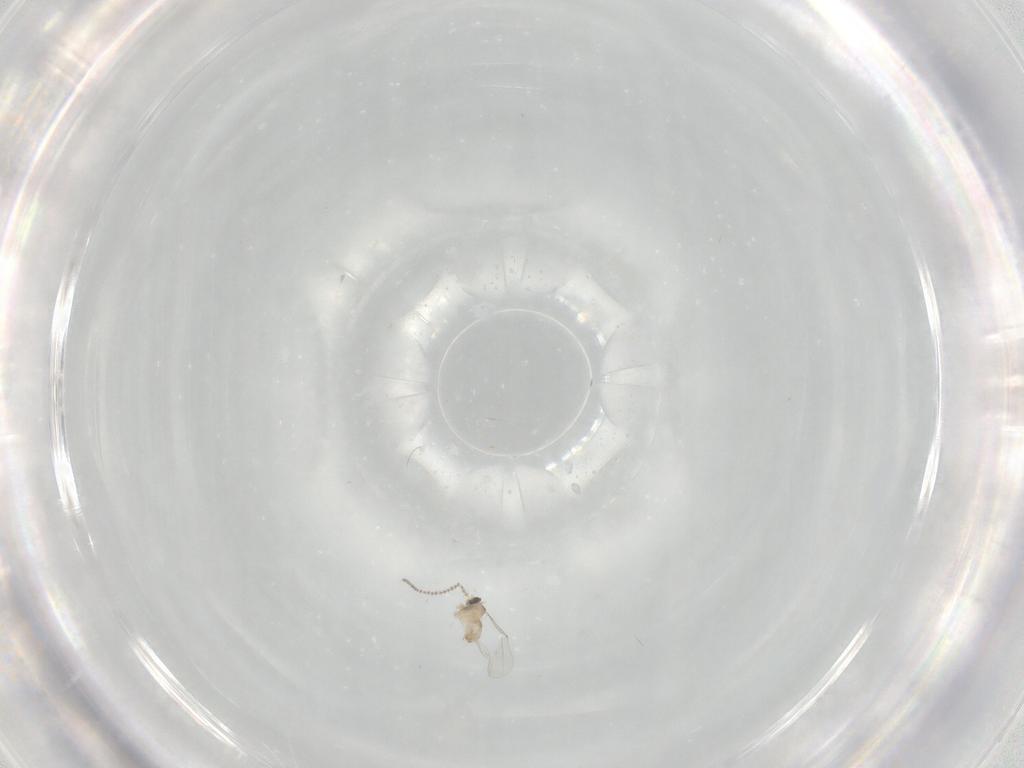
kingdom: Animalia
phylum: Arthropoda
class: Insecta
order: Diptera
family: Cecidomyiidae
